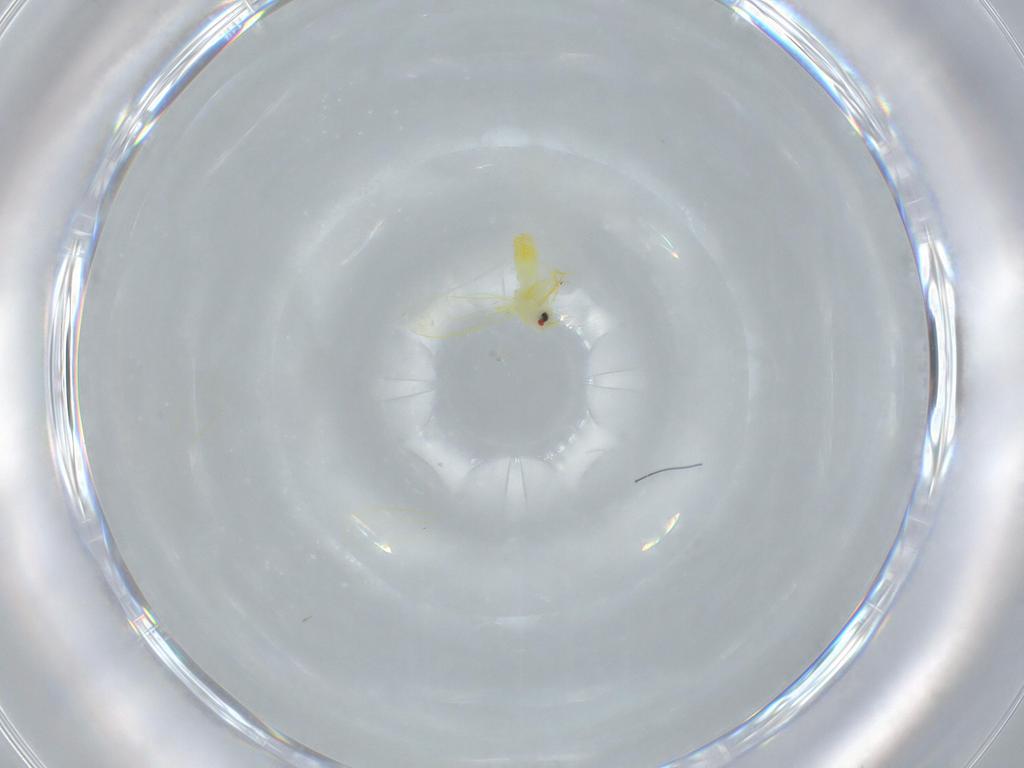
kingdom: Animalia
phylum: Arthropoda
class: Insecta
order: Hemiptera
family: Aleyrodidae
